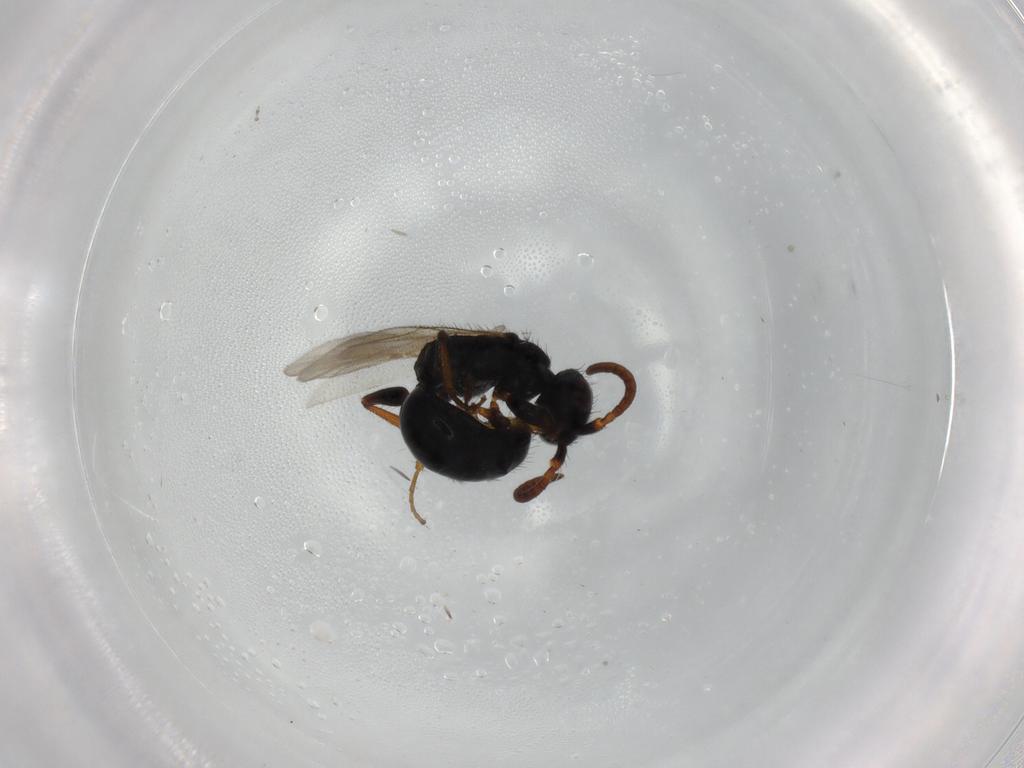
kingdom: Animalia
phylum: Arthropoda
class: Insecta
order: Hymenoptera
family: Bethylidae
